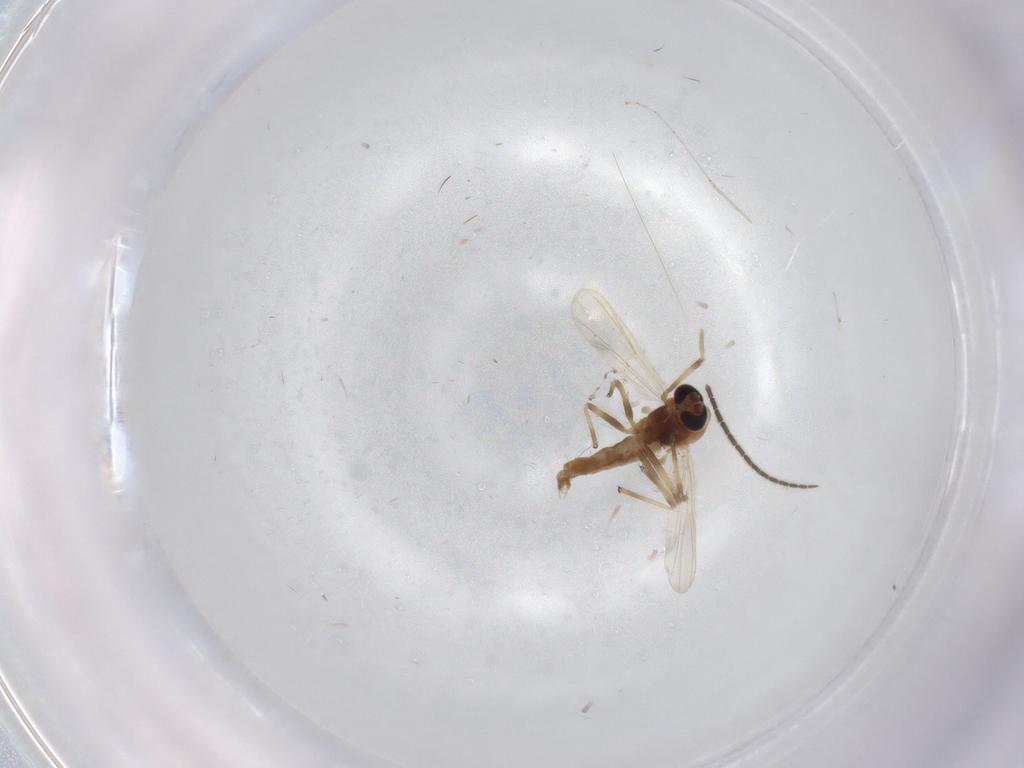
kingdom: Animalia
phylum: Arthropoda
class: Insecta
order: Diptera
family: Chironomidae
